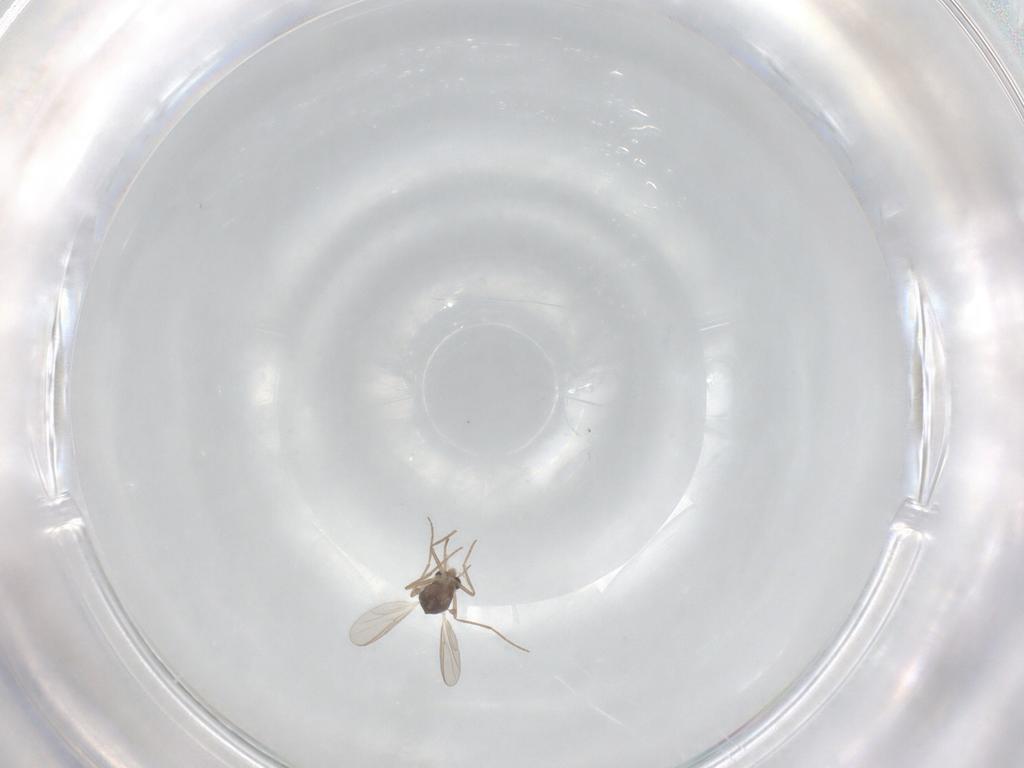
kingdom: Animalia
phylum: Arthropoda
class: Insecta
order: Diptera
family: Chironomidae
